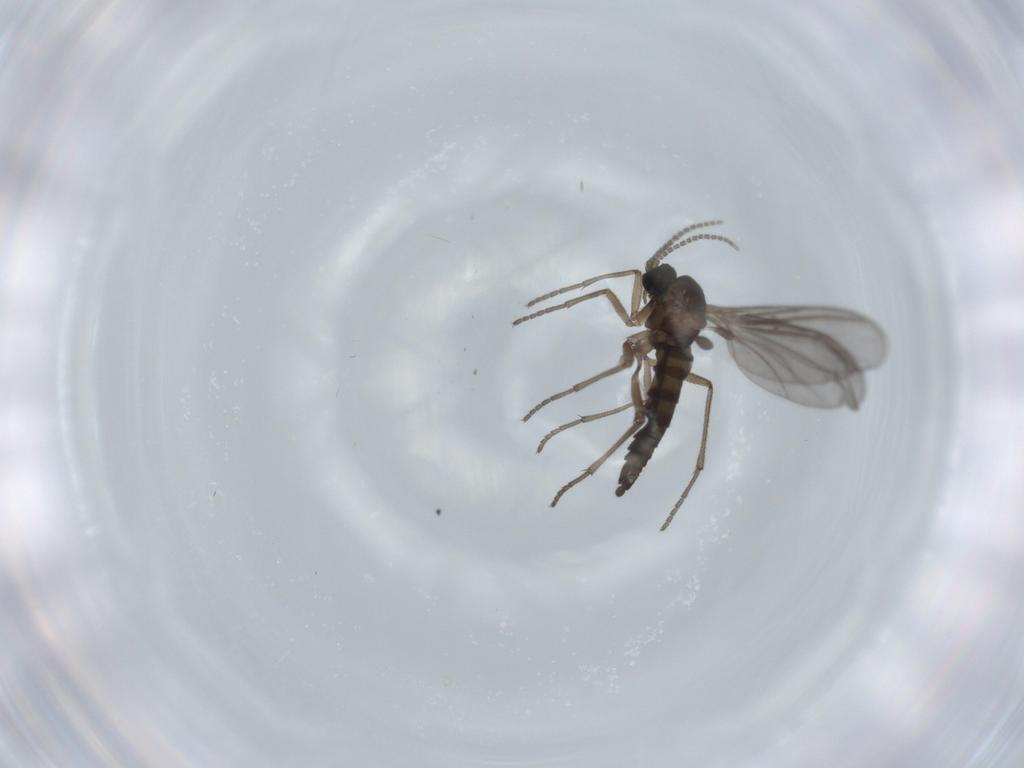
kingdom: Animalia
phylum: Arthropoda
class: Insecta
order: Diptera
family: Sciaridae
